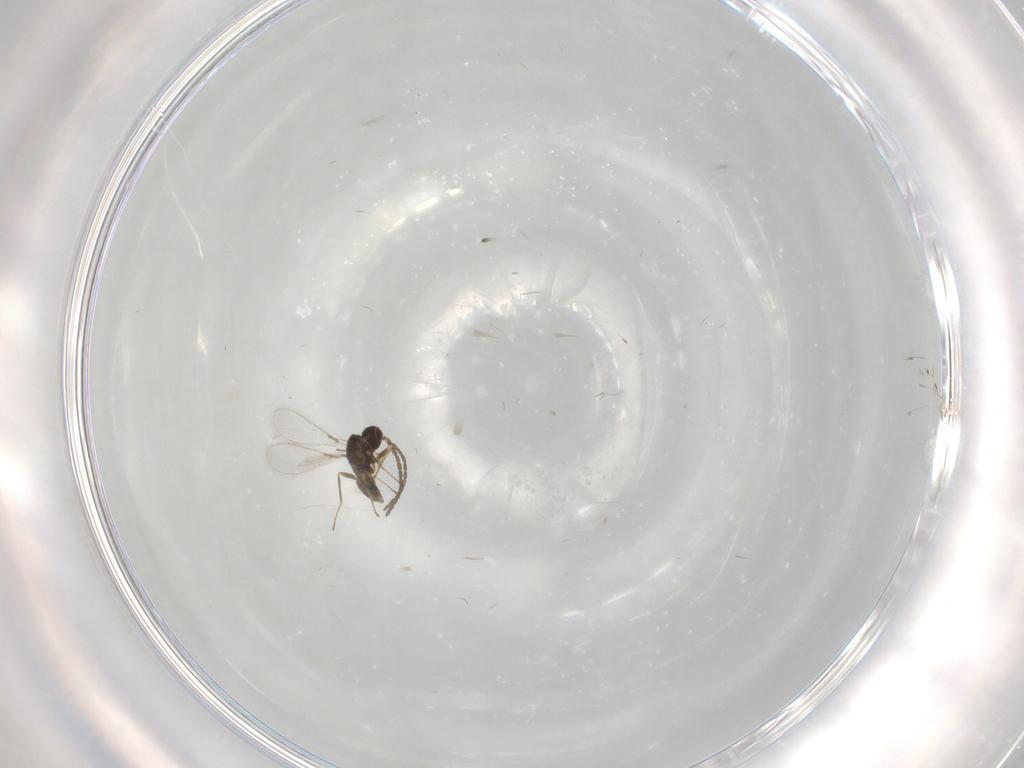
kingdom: Animalia
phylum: Arthropoda
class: Insecta
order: Hymenoptera
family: Mymaridae
